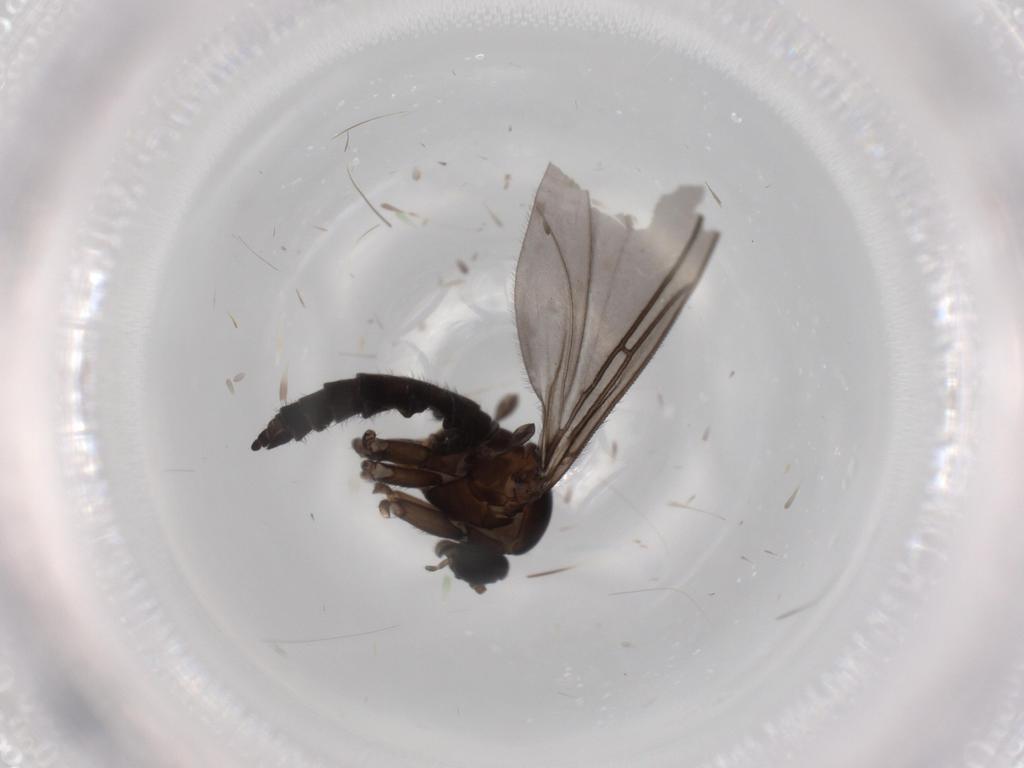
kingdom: Animalia
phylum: Arthropoda
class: Insecta
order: Diptera
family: Sciaridae
